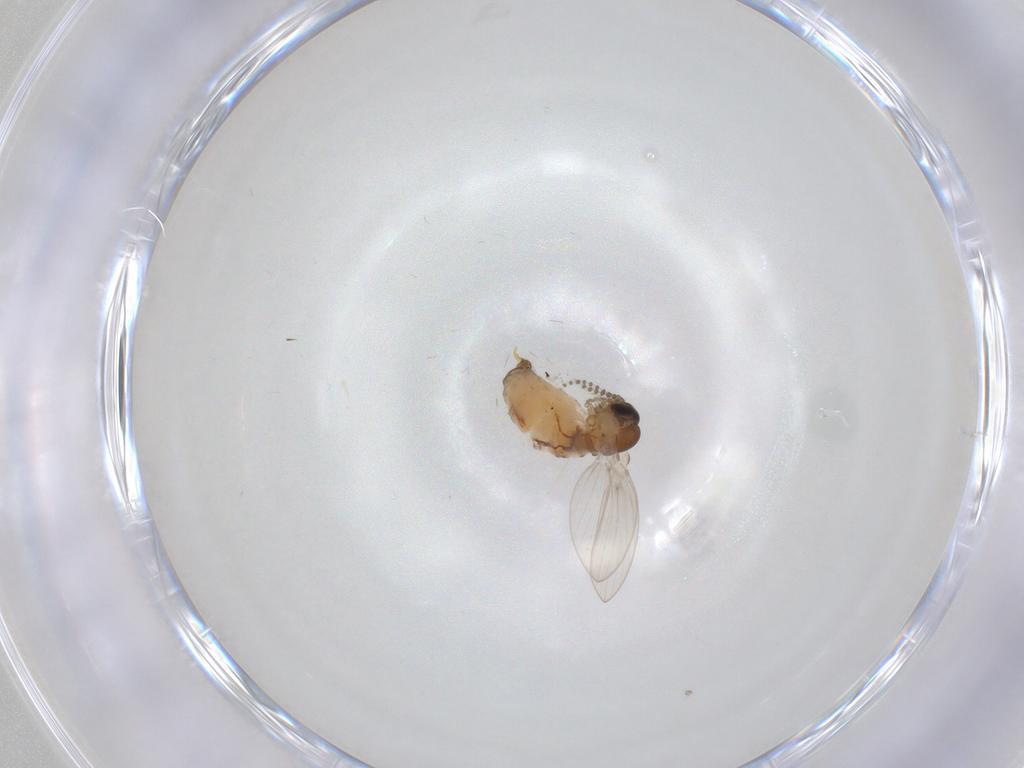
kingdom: Animalia
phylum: Arthropoda
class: Insecta
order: Diptera
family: Psychodidae
